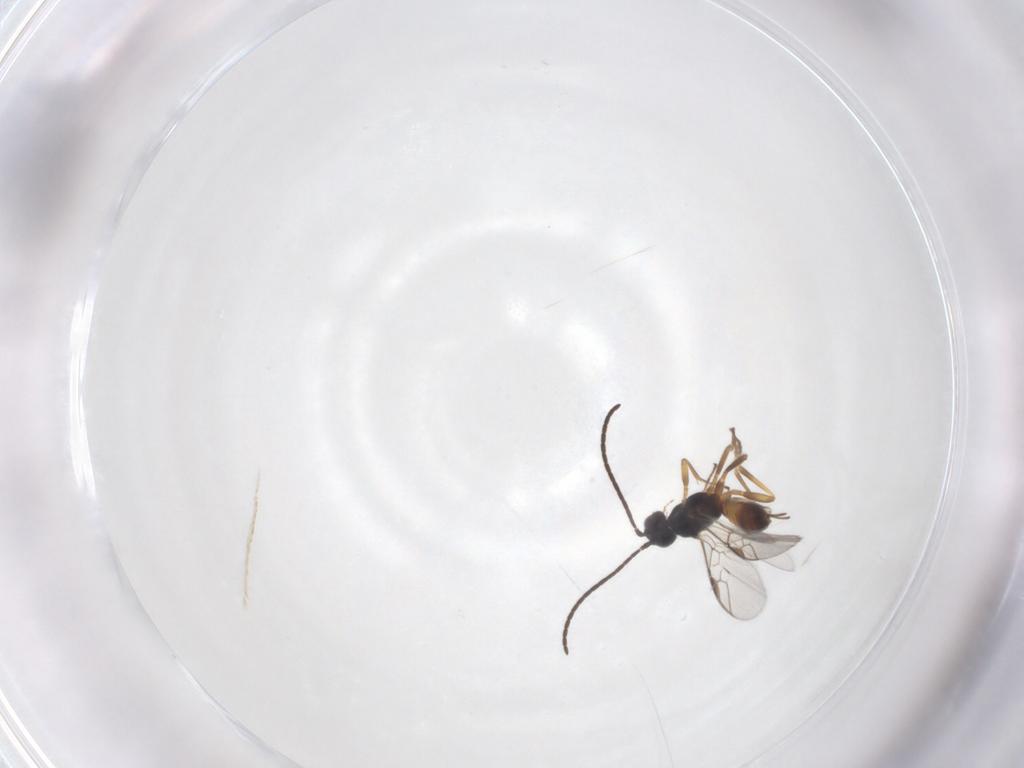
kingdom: Animalia
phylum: Arthropoda
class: Insecta
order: Hymenoptera
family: Braconidae
